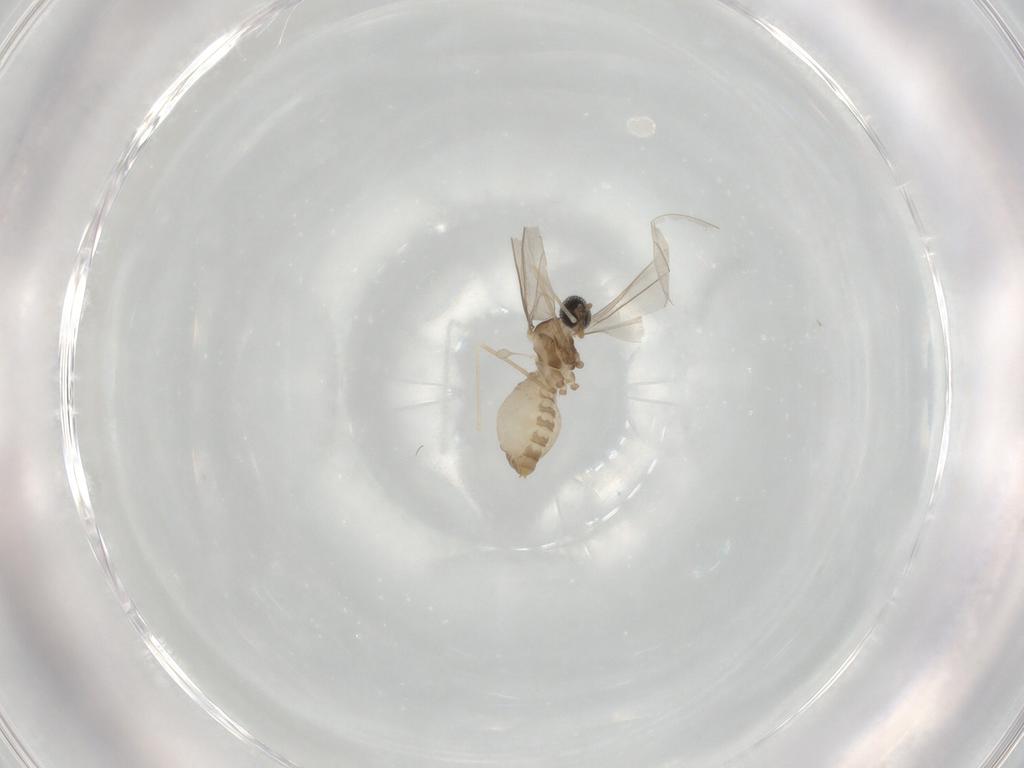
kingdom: Animalia
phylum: Arthropoda
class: Insecta
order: Diptera
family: Cecidomyiidae
